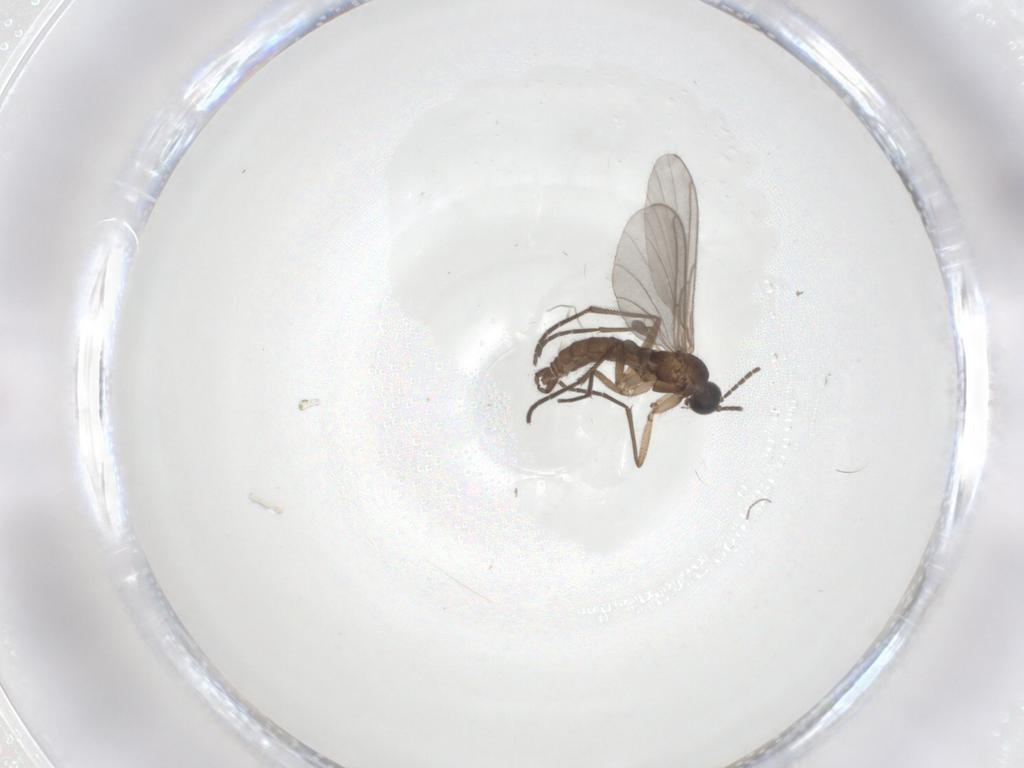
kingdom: Animalia
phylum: Arthropoda
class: Insecta
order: Diptera
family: Sciaridae
